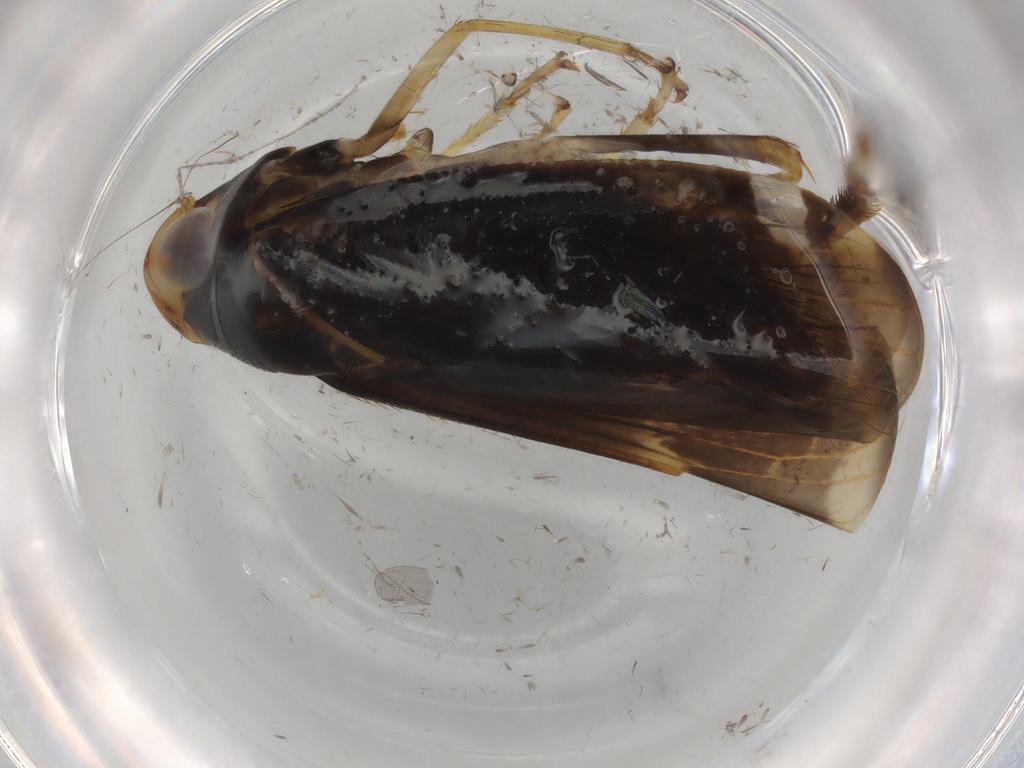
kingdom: Animalia
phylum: Arthropoda
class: Insecta
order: Hemiptera
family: Cicadellidae
